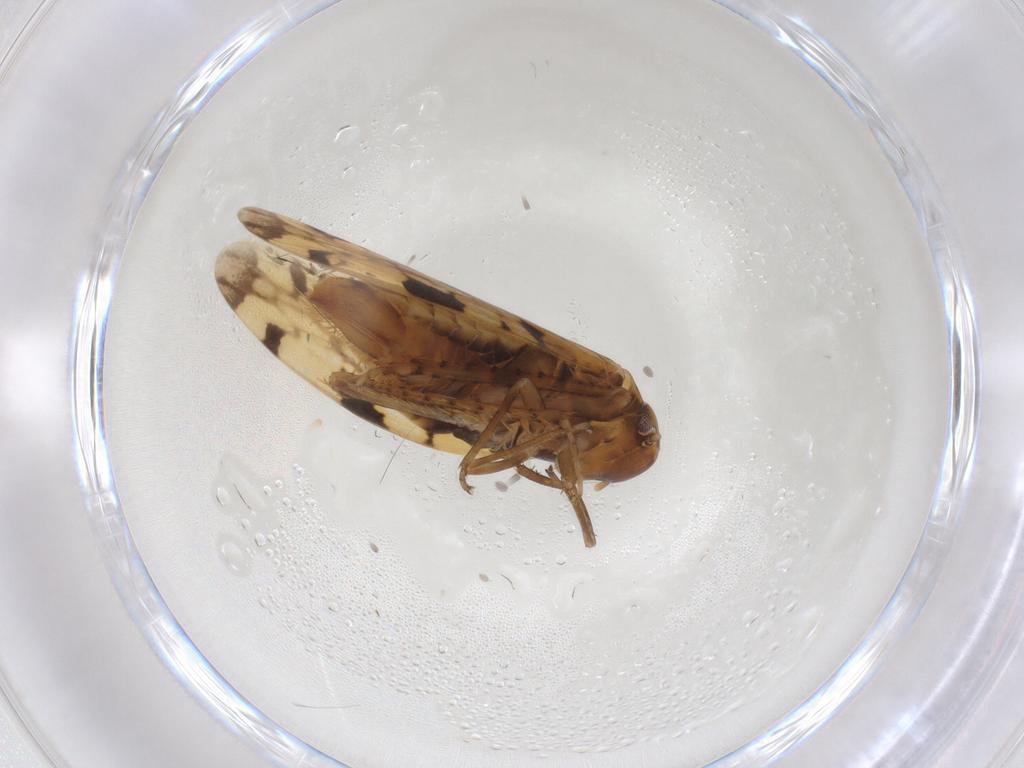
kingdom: Animalia
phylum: Arthropoda
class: Insecta
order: Hemiptera
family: Cicadellidae
